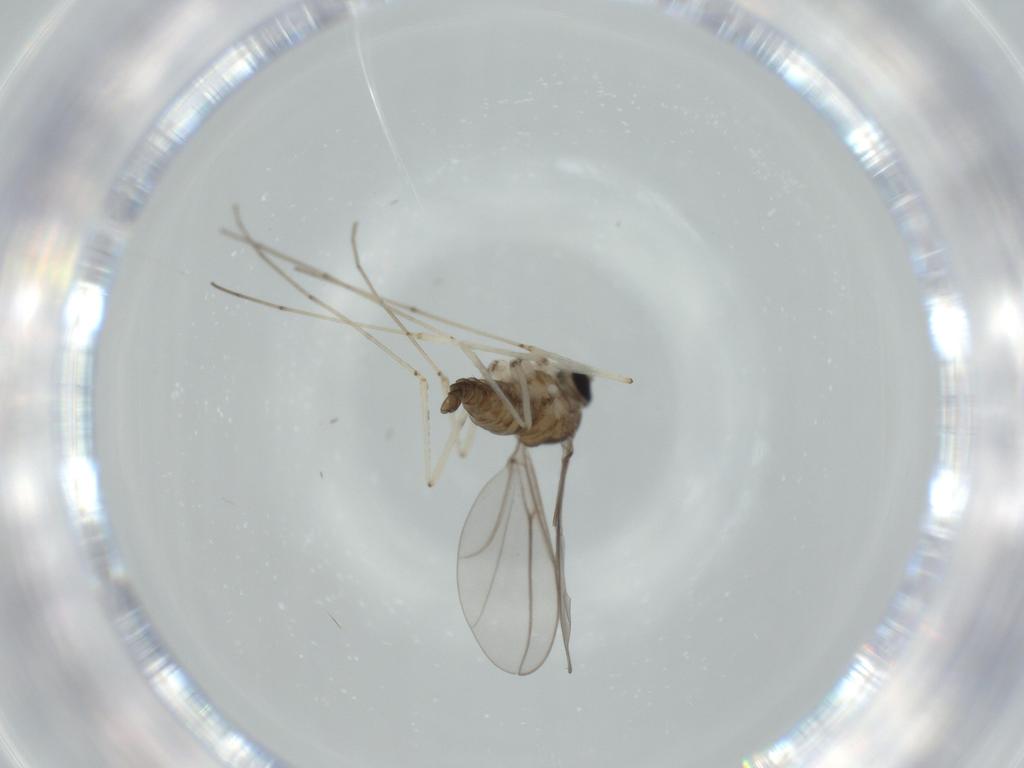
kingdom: Animalia
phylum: Arthropoda
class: Insecta
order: Diptera
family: Cecidomyiidae
